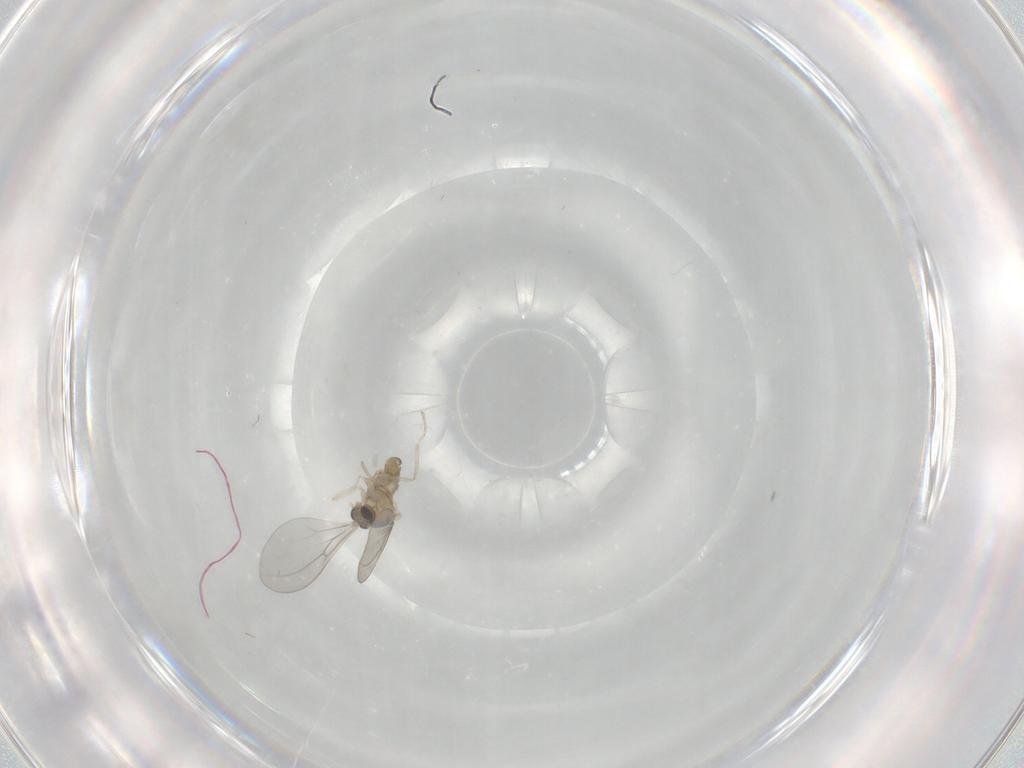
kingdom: Animalia
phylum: Arthropoda
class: Insecta
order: Diptera
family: Cecidomyiidae
